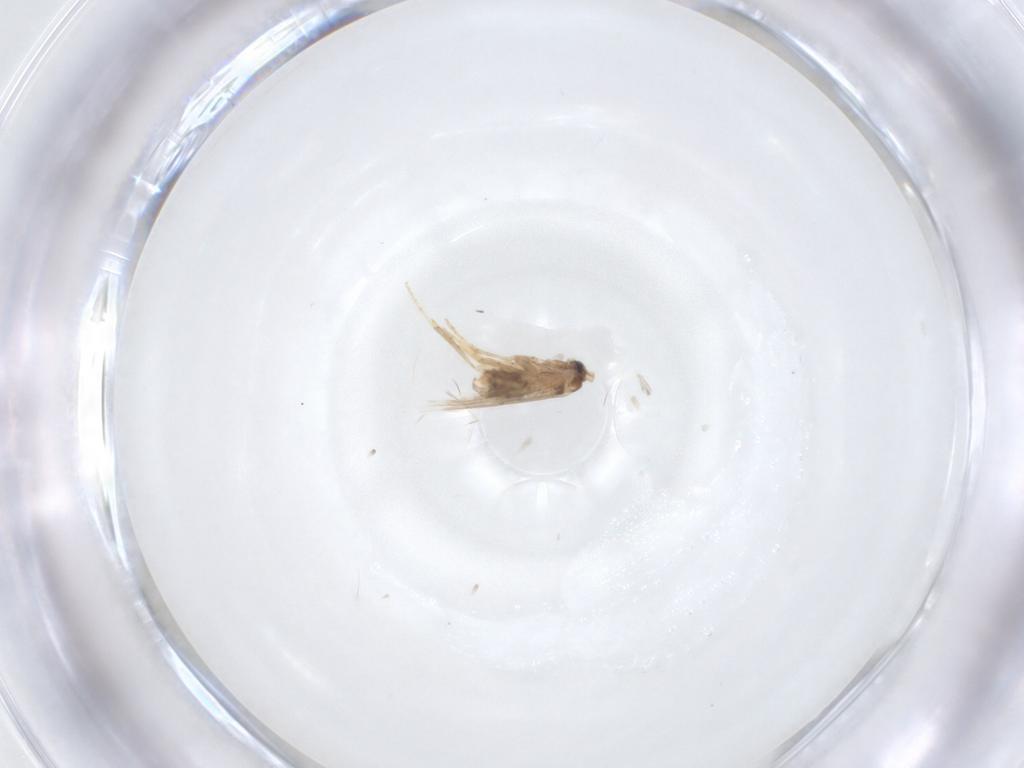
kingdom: Animalia
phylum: Arthropoda
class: Insecta
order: Lepidoptera
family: Nepticulidae
